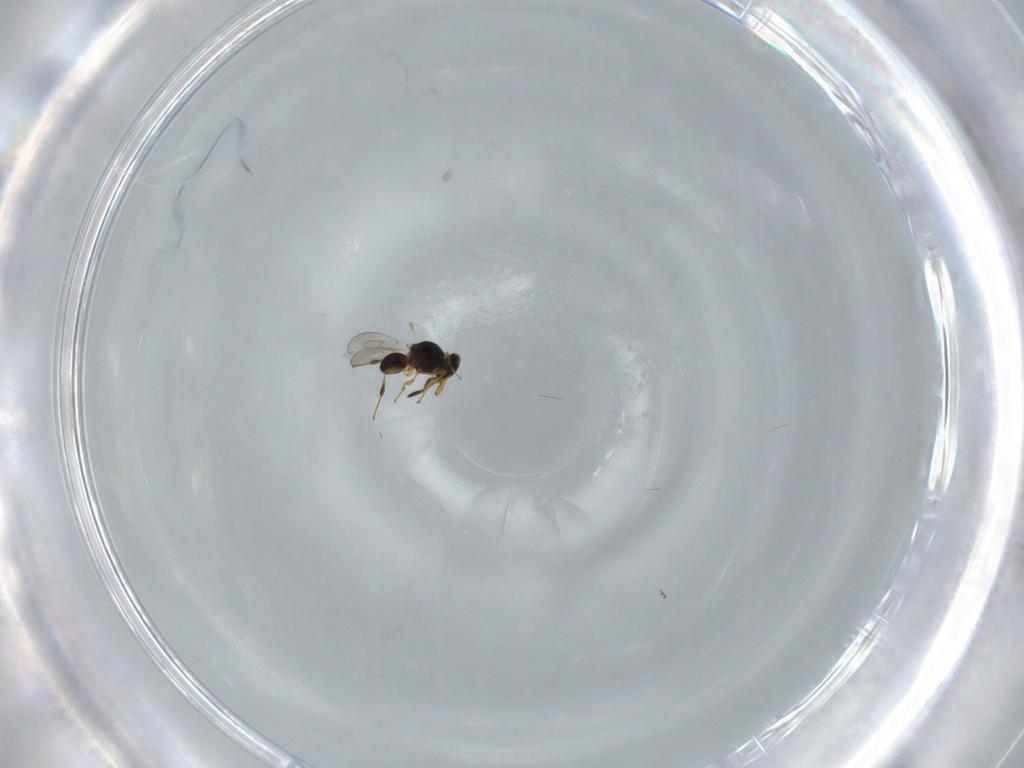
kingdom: Animalia
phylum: Arthropoda
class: Insecta
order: Hymenoptera
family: Platygastridae
